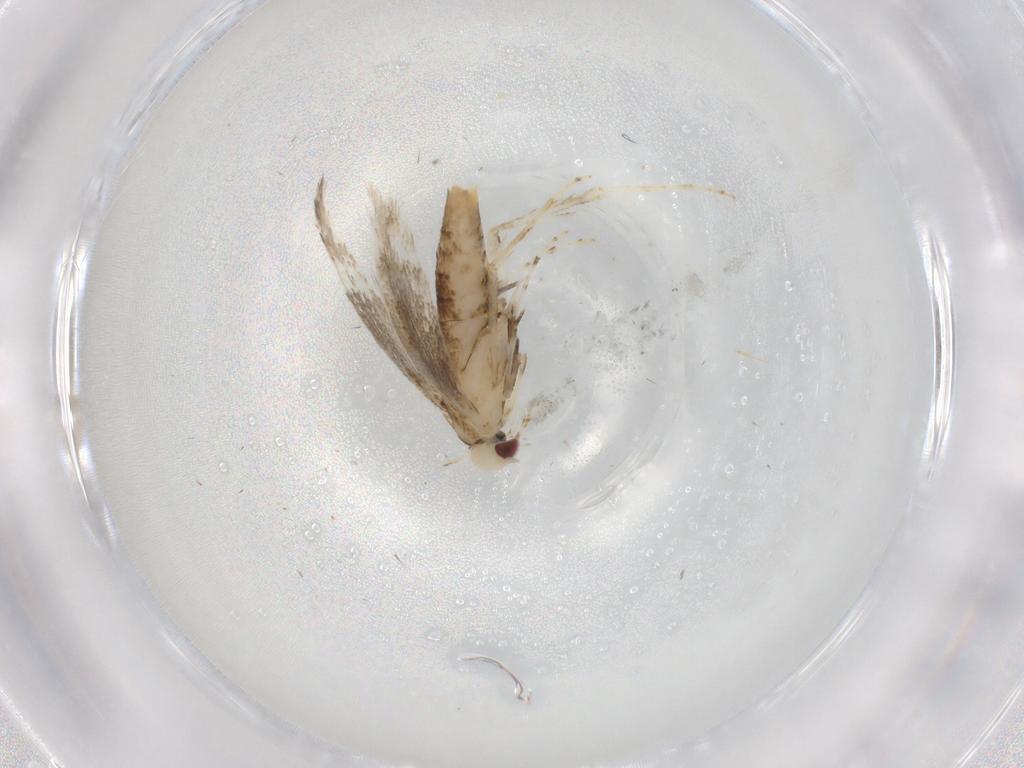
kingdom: Animalia
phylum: Arthropoda
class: Insecta
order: Lepidoptera
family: Gracillariidae
